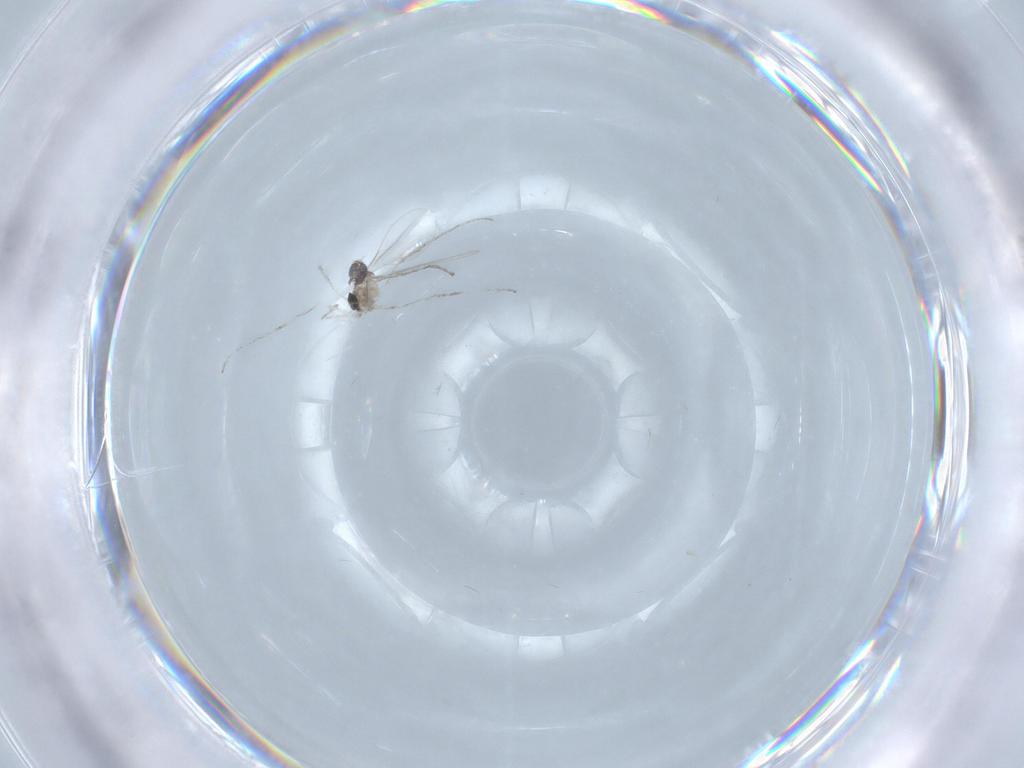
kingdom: Animalia
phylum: Arthropoda
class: Insecta
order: Diptera
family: Cecidomyiidae
